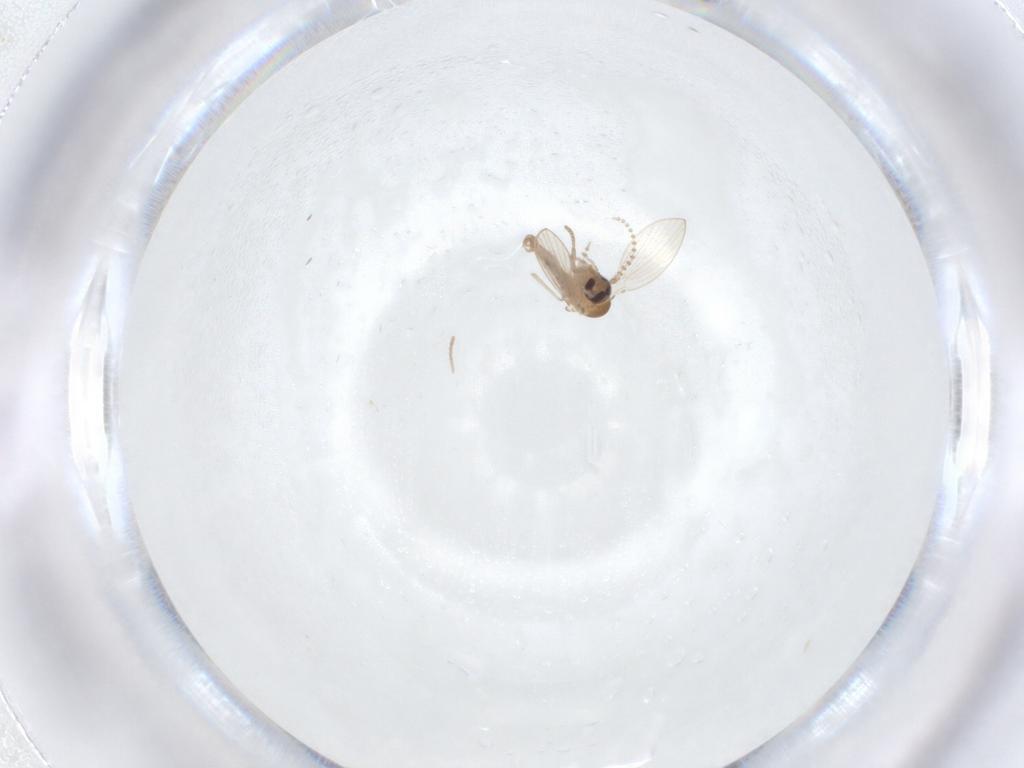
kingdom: Animalia
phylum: Arthropoda
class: Insecta
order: Diptera
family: Psychodidae
